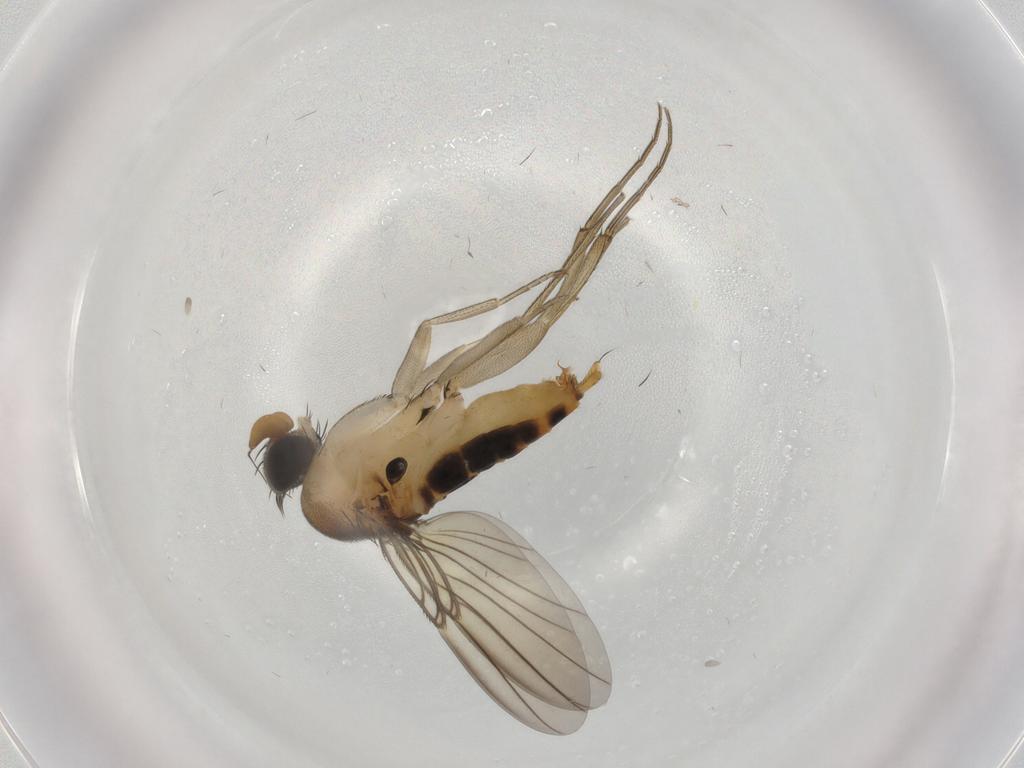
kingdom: Animalia
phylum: Arthropoda
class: Insecta
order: Diptera
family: Phoridae
